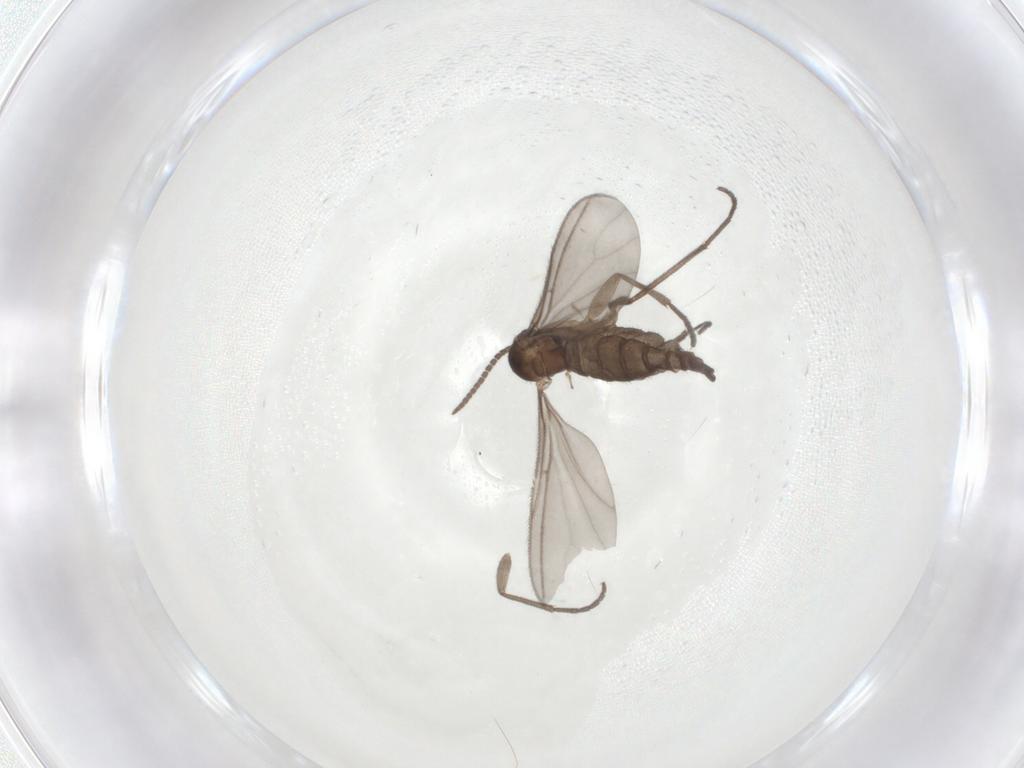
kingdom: Animalia
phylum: Arthropoda
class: Insecta
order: Diptera
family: Sciaridae
